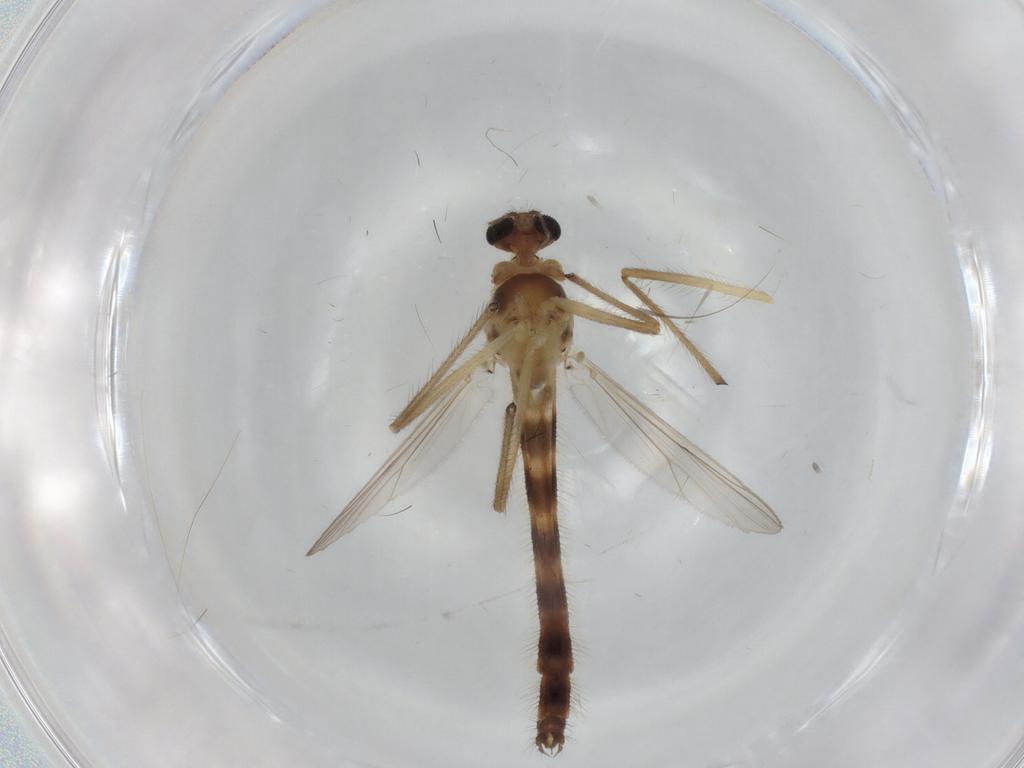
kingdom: Animalia
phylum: Arthropoda
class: Insecta
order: Diptera
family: Chironomidae
